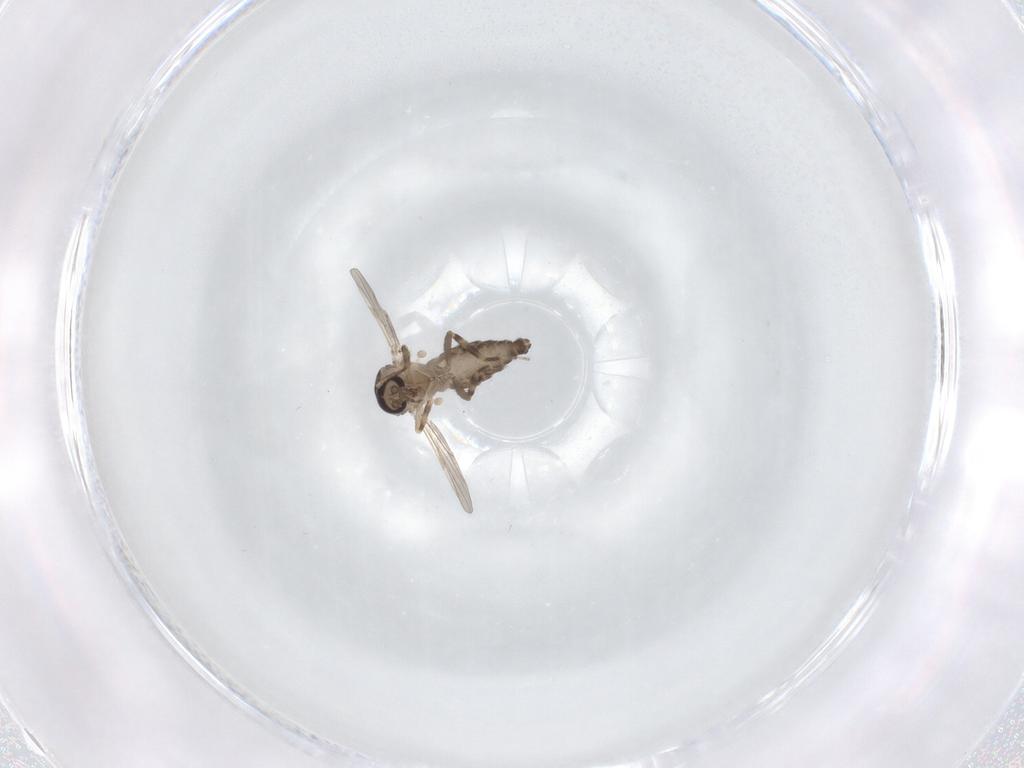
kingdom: Animalia
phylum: Arthropoda
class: Insecta
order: Diptera
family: Ceratopogonidae
